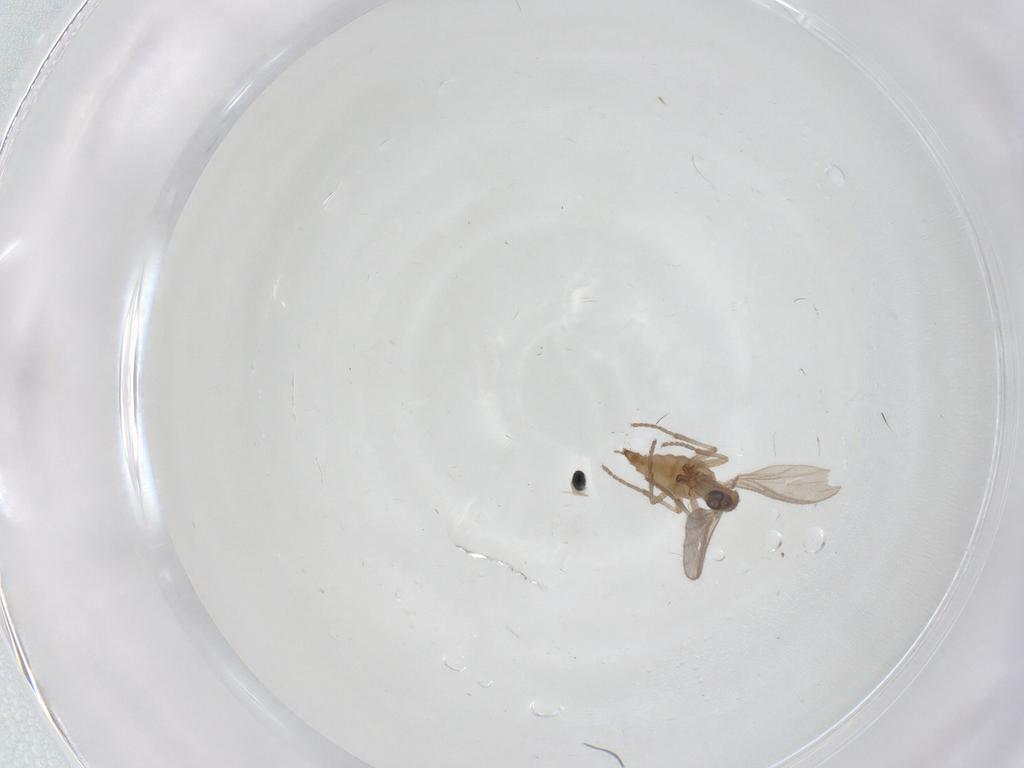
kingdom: Animalia
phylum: Arthropoda
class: Insecta
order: Diptera
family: Sciaridae
